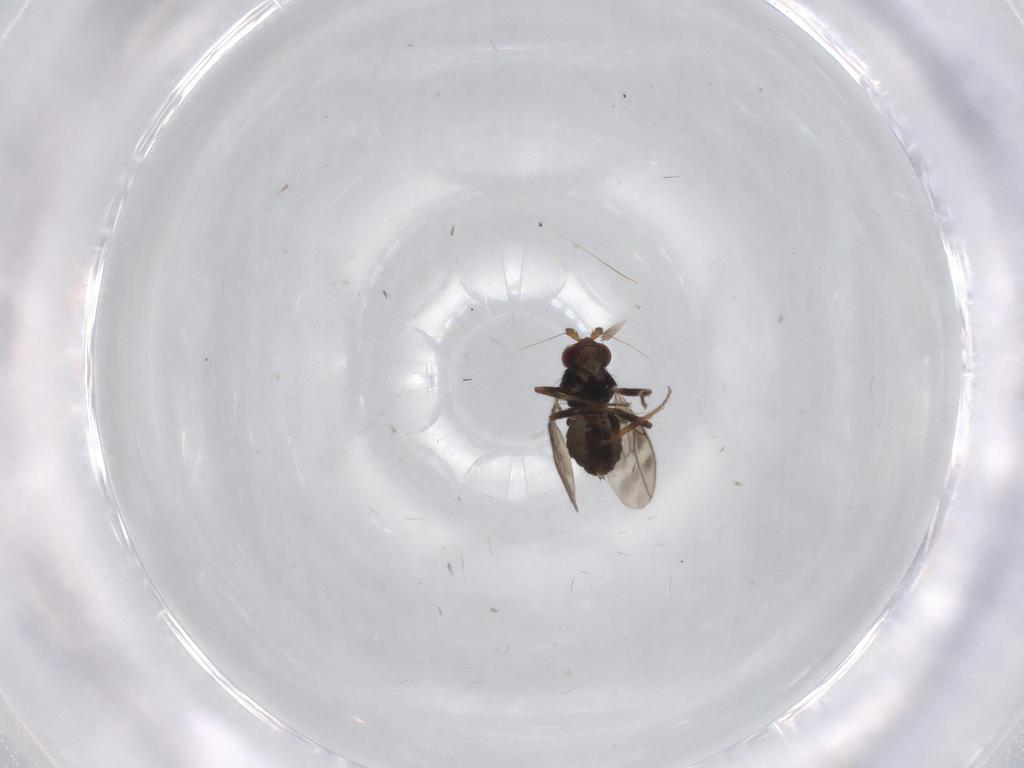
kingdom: Animalia
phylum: Arthropoda
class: Insecta
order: Diptera
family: Sphaeroceridae
